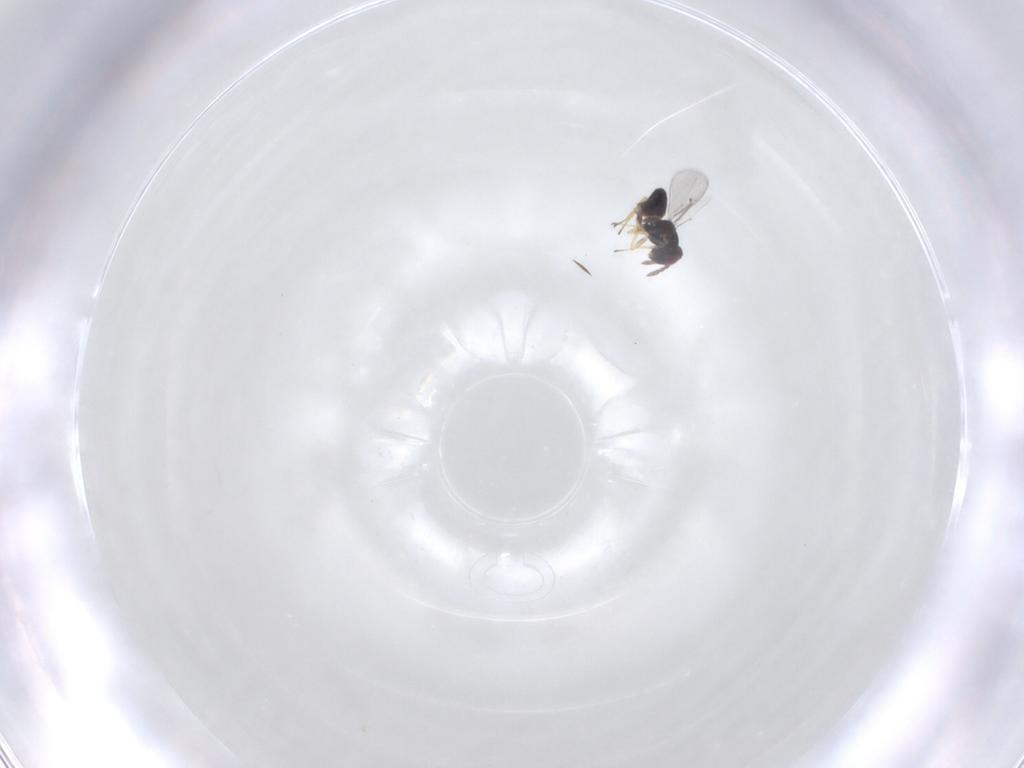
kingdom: Animalia
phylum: Arthropoda
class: Insecta
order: Hymenoptera
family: Eulophidae
